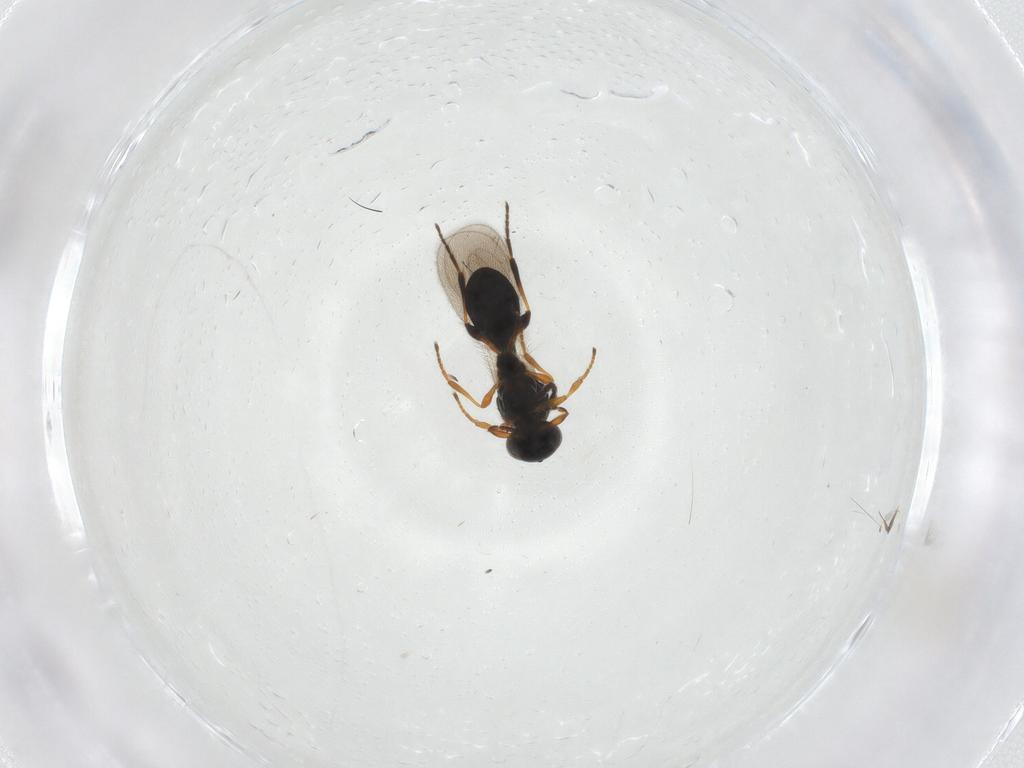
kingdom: Animalia
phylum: Arthropoda
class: Insecta
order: Hymenoptera
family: Platygastridae
